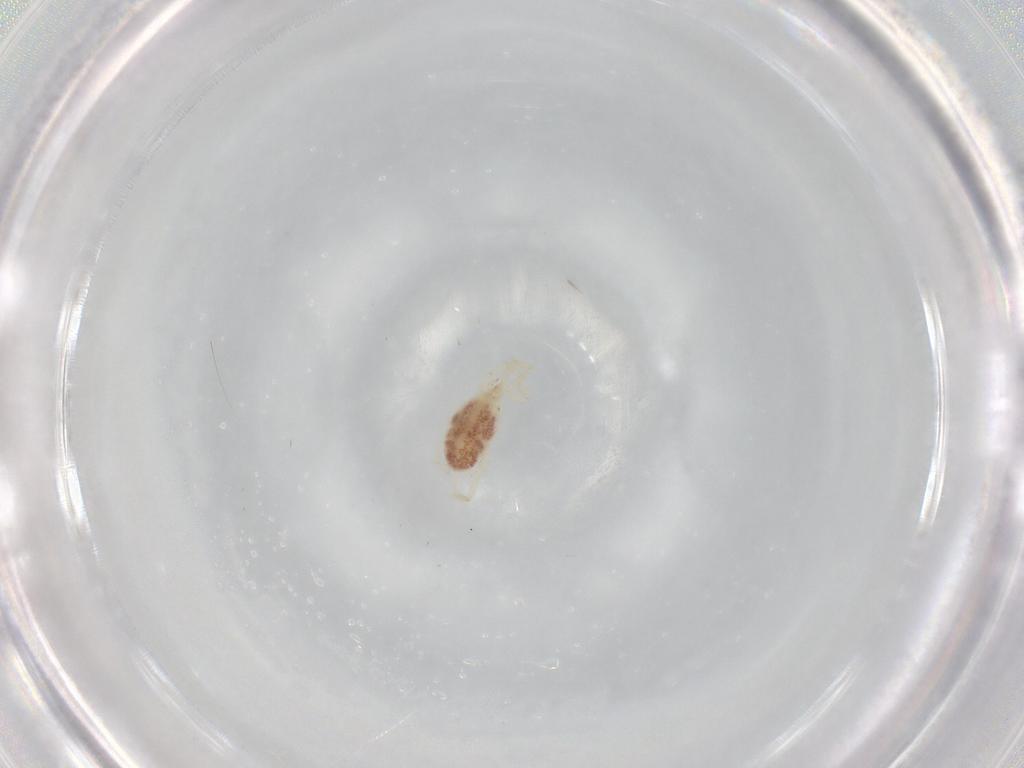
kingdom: Animalia
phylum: Arthropoda
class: Arachnida
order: Trombidiformes
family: Erythraeidae
